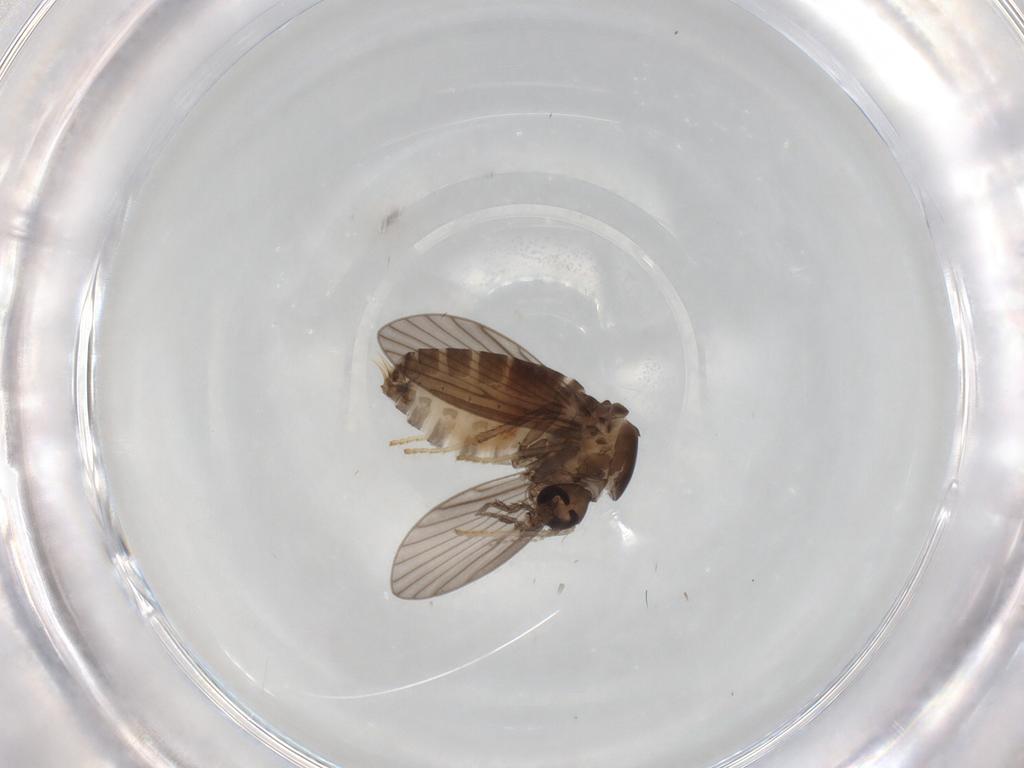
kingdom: Animalia
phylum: Arthropoda
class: Insecta
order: Diptera
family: Psychodidae
